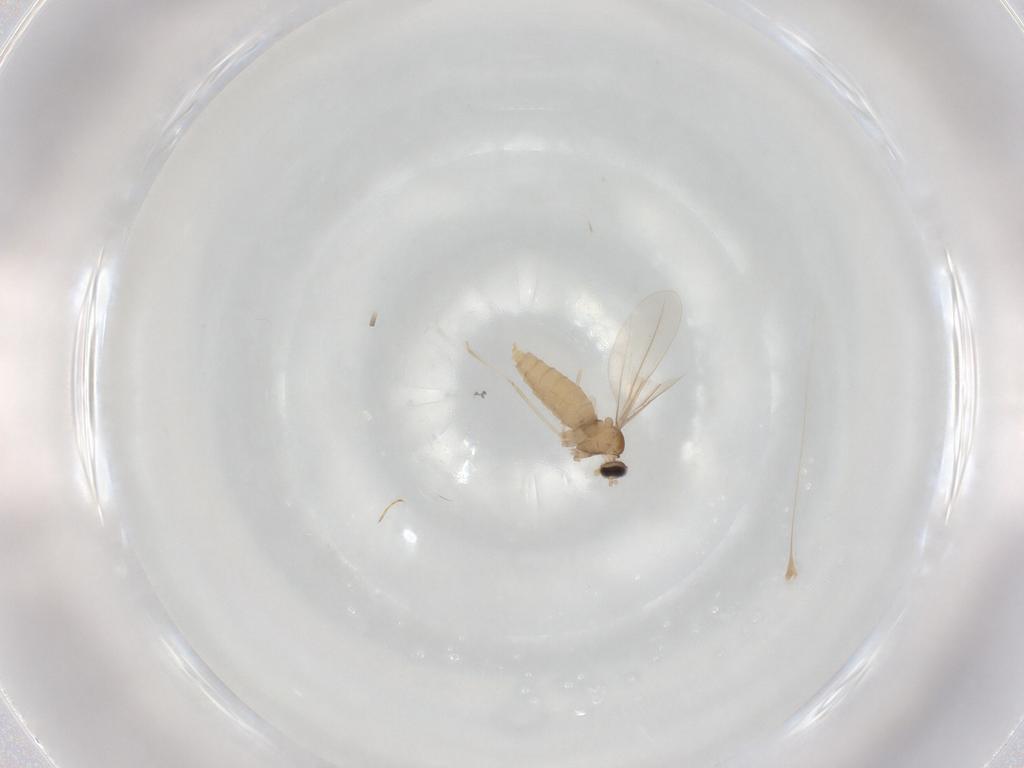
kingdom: Animalia
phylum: Arthropoda
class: Insecta
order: Diptera
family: Cecidomyiidae
